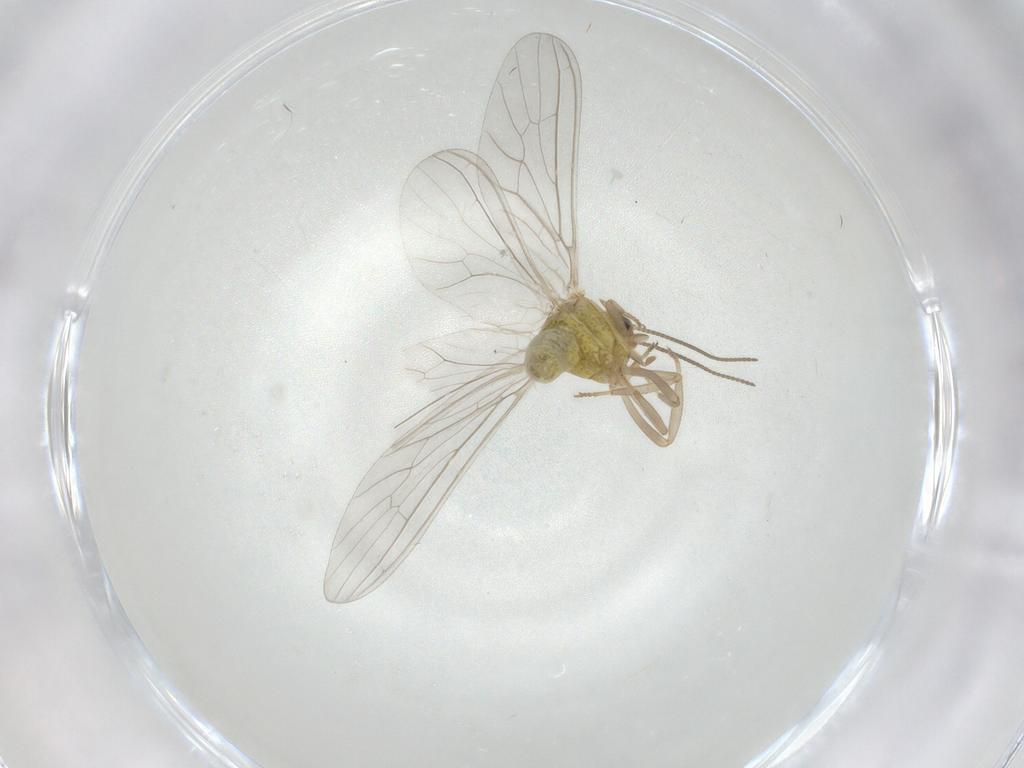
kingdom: Animalia
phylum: Arthropoda
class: Insecta
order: Neuroptera
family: Coniopterygidae
